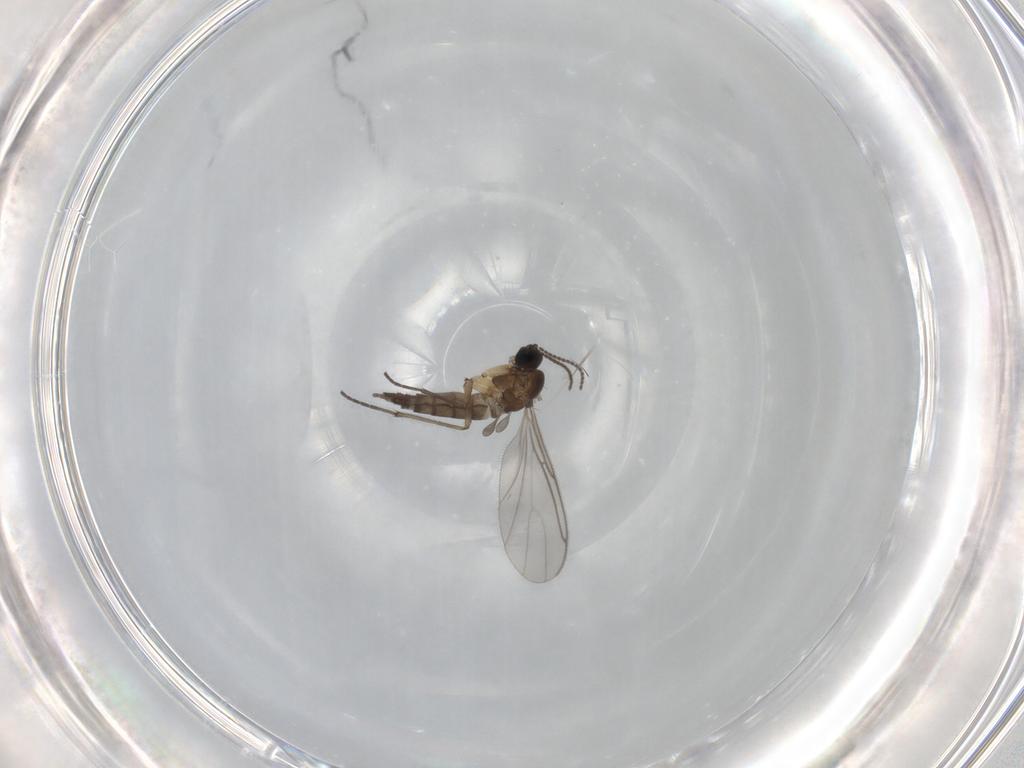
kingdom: Animalia
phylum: Arthropoda
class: Insecta
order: Diptera
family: Sciaridae
